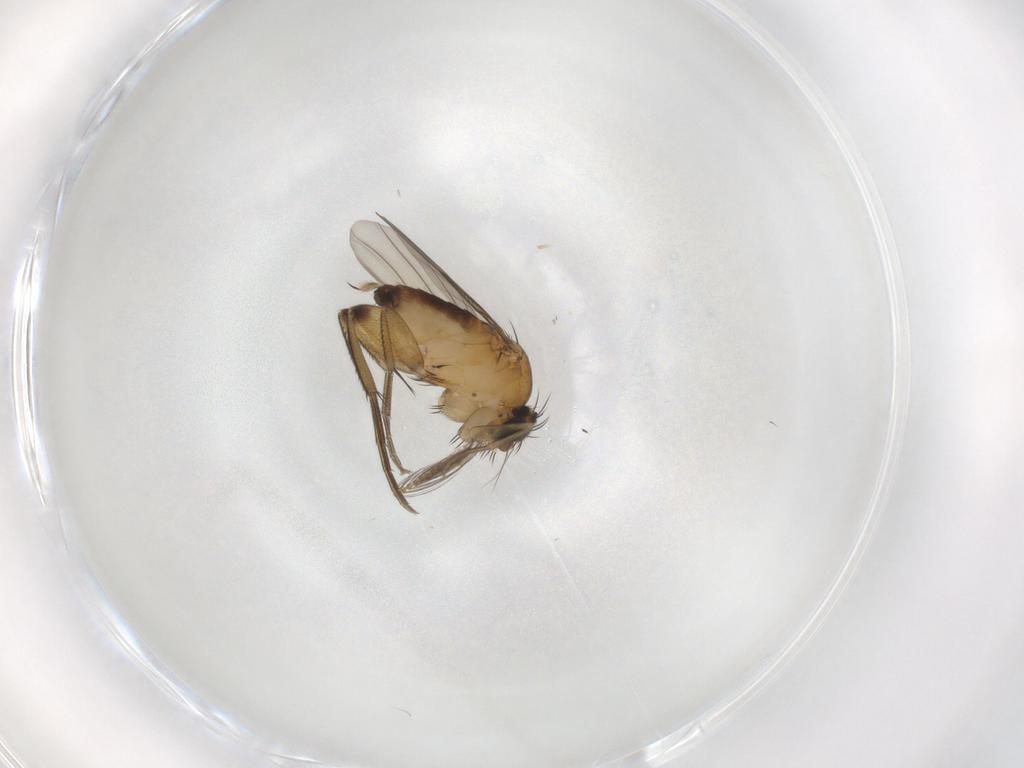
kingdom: Animalia
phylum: Arthropoda
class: Insecta
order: Diptera
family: Phoridae
